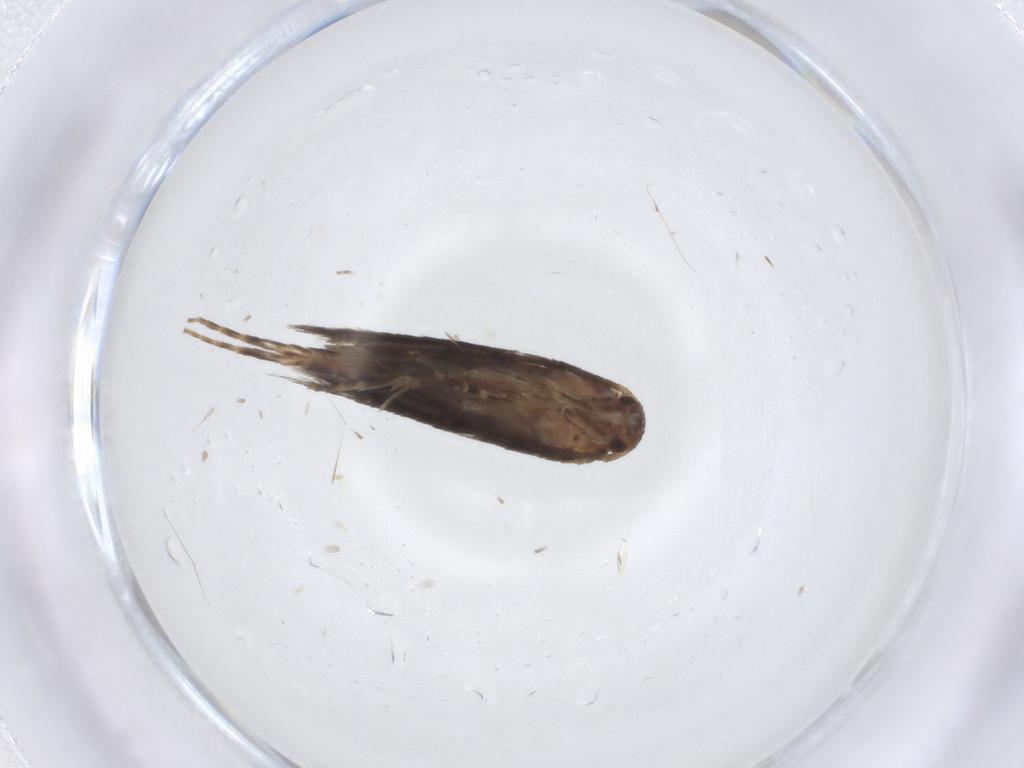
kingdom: Animalia
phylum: Arthropoda
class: Insecta
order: Lepidoptera
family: Elachistidae
